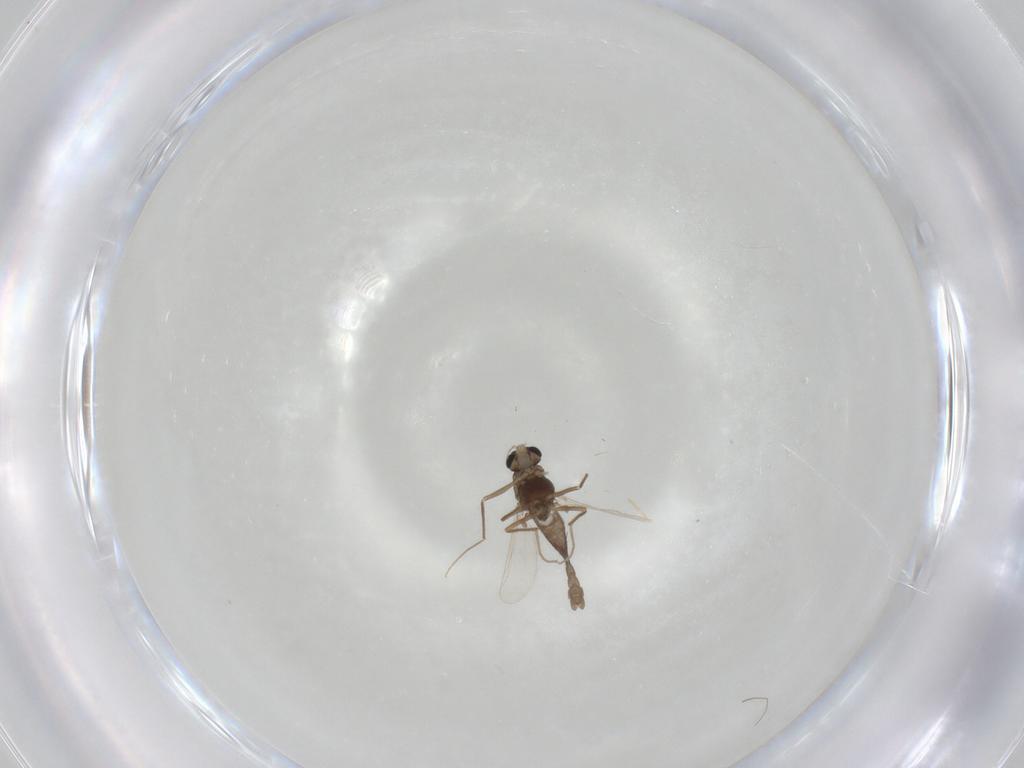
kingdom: Animalia
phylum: Arthropoda
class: Insecta
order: Diptera
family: Chironomidae
